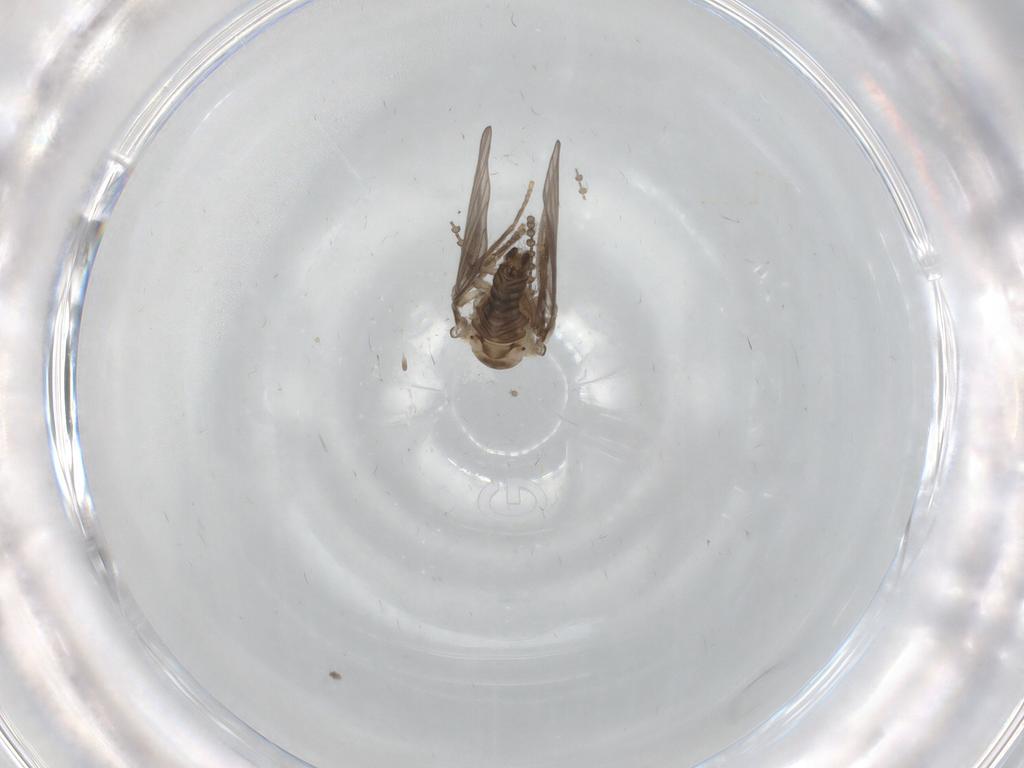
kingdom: Animalia
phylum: Arthropoda
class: Insecta
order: Diptera
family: Psychodidae
